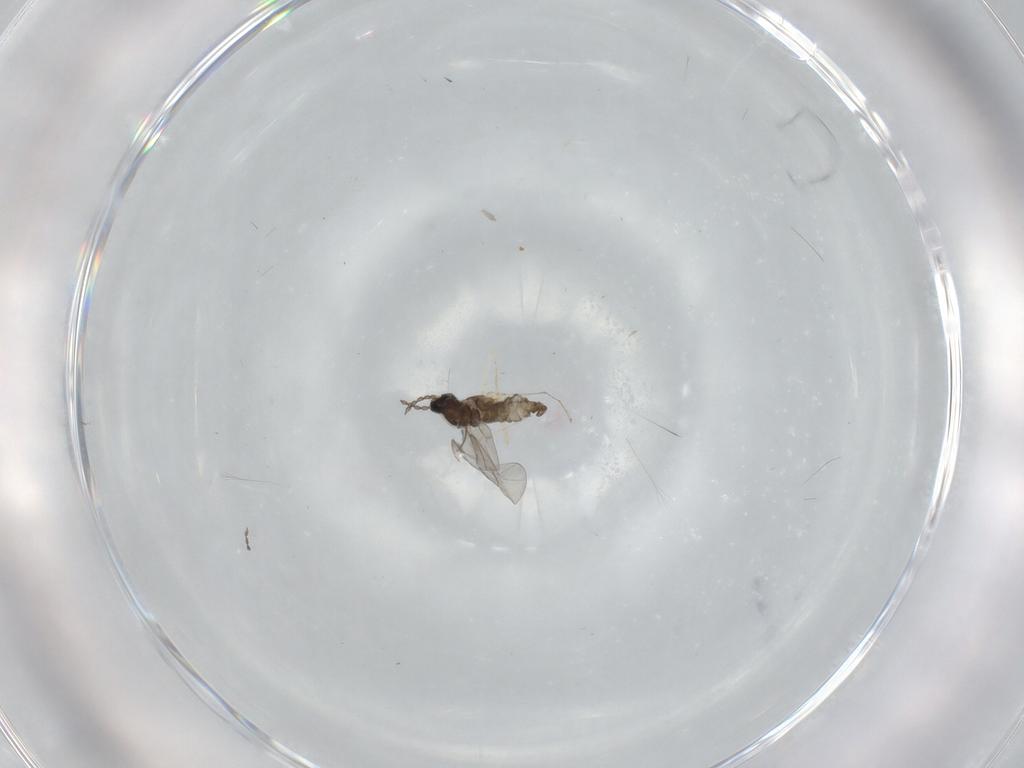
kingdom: Animalia
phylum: Arthropoda
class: Insecta
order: Diptera
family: Cecidomyiidae
